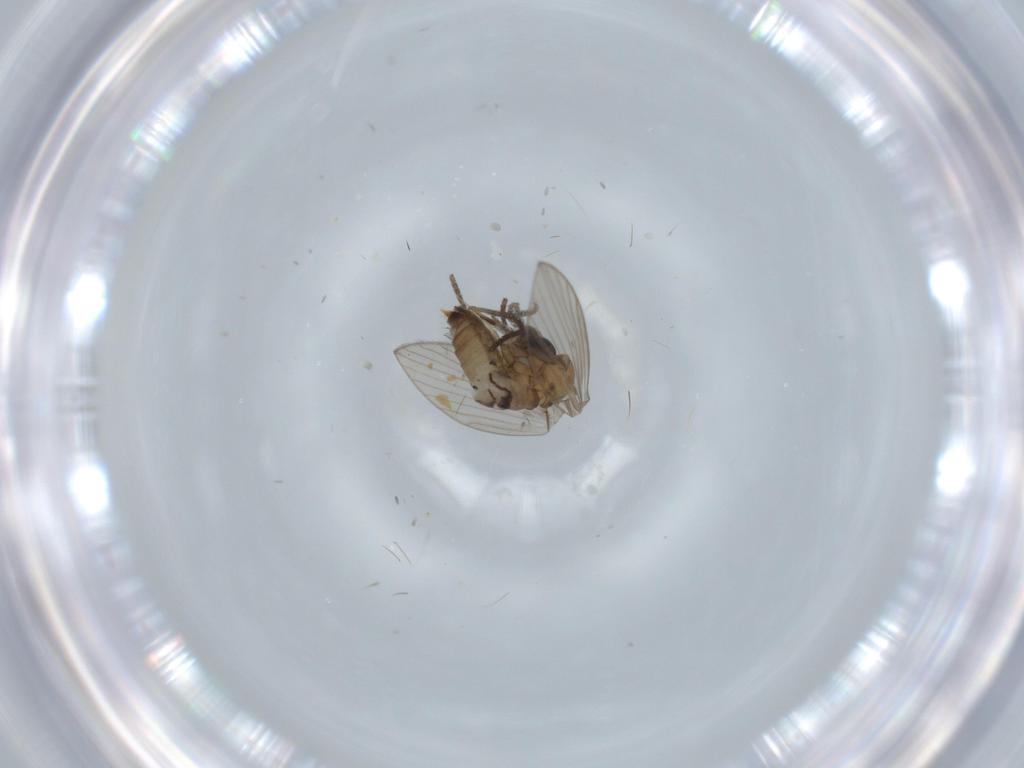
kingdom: Animalia
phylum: Arthropoda
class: Insecta
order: Diptera
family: Psychodidae
